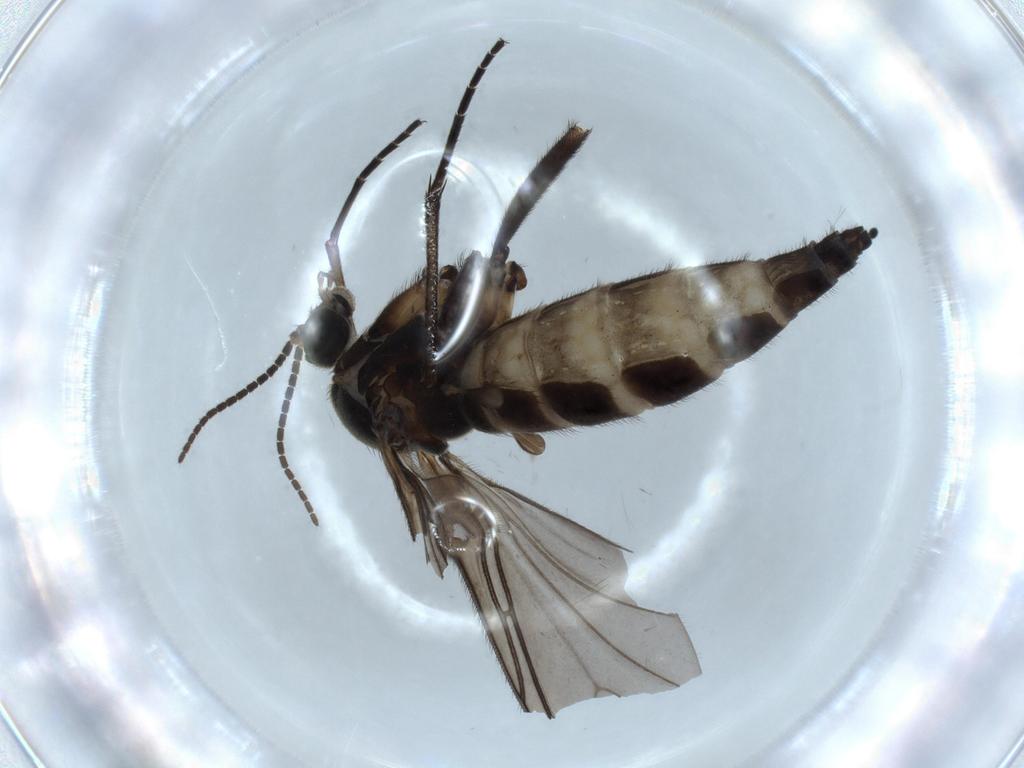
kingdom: Animalia
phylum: Arthropoda
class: Insecta
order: Diptera
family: Sciaridae
